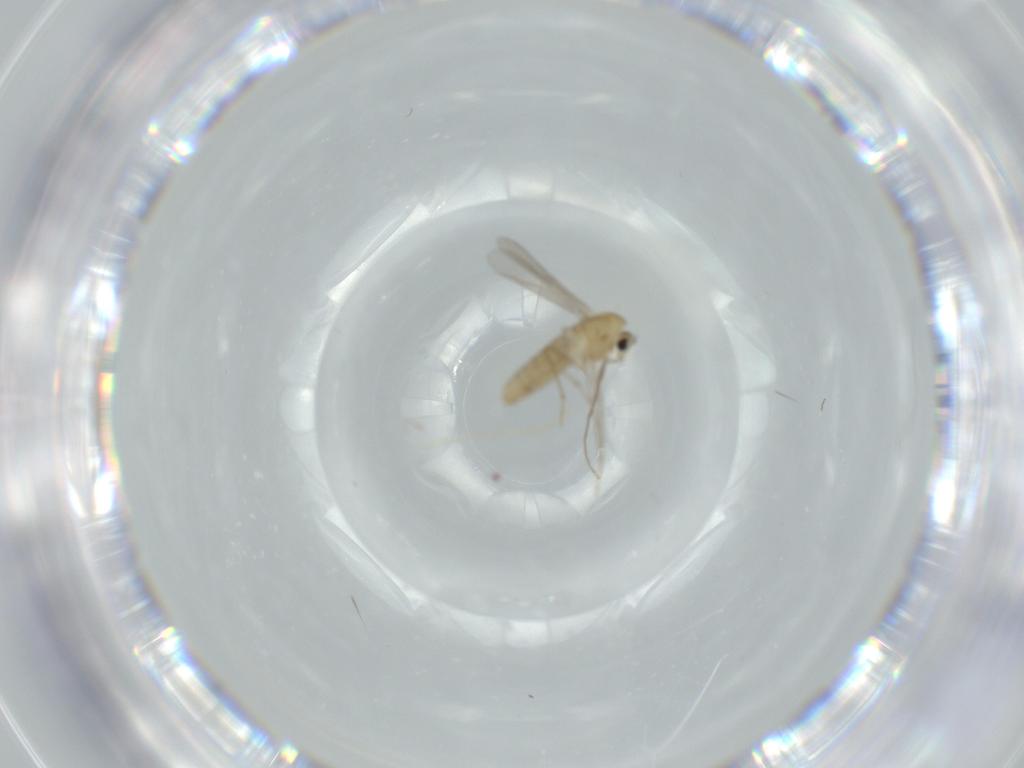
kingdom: Animalia
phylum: Arthropoda
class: Insecta
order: Diptera
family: Chironomidae
